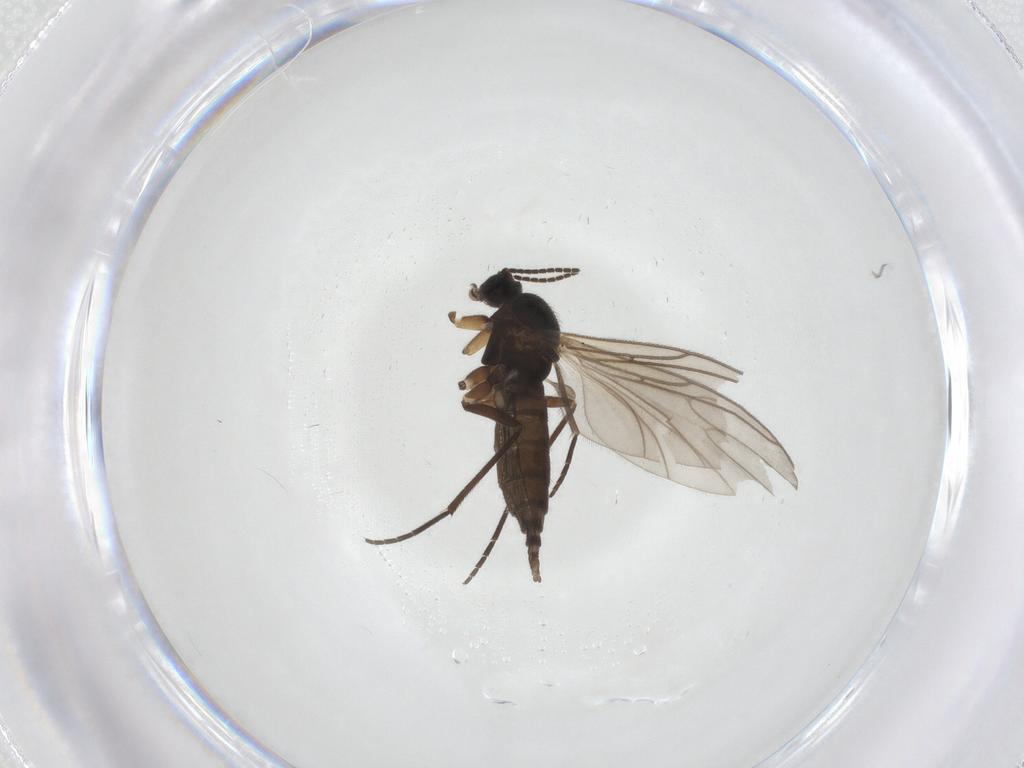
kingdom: Animalia
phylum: Arthropoda
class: Insecta
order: Diptera
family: Sciaridae
